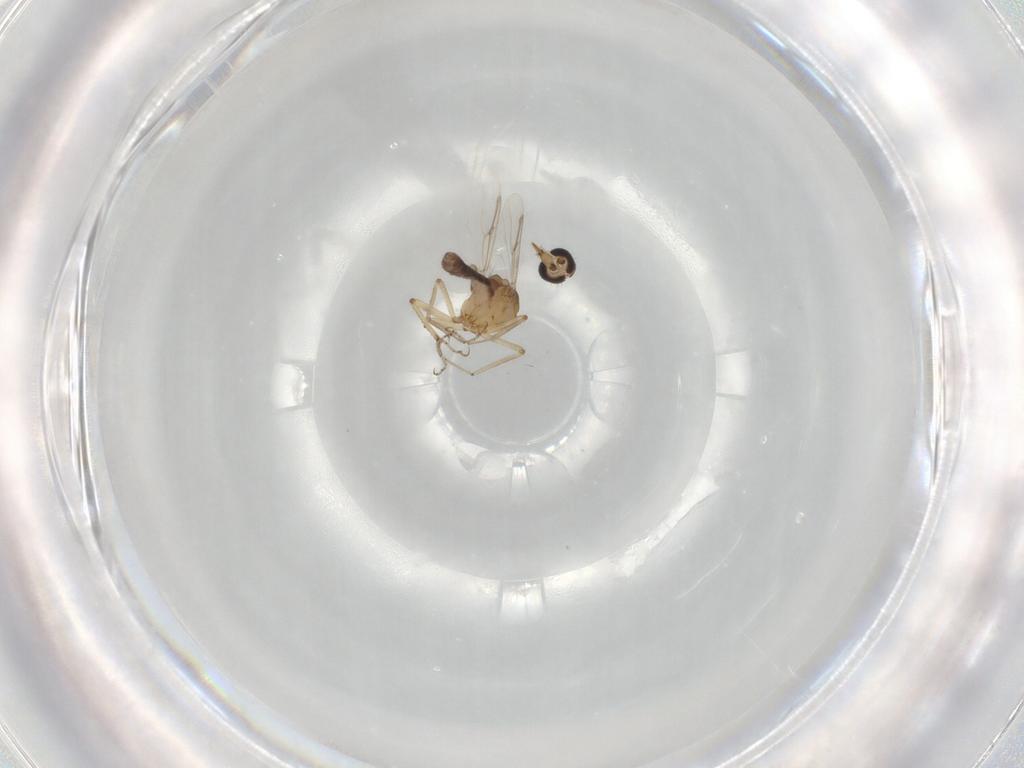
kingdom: Animalia
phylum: Arthropoda
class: Insecta
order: Diptera
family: Ceratopogonidae
